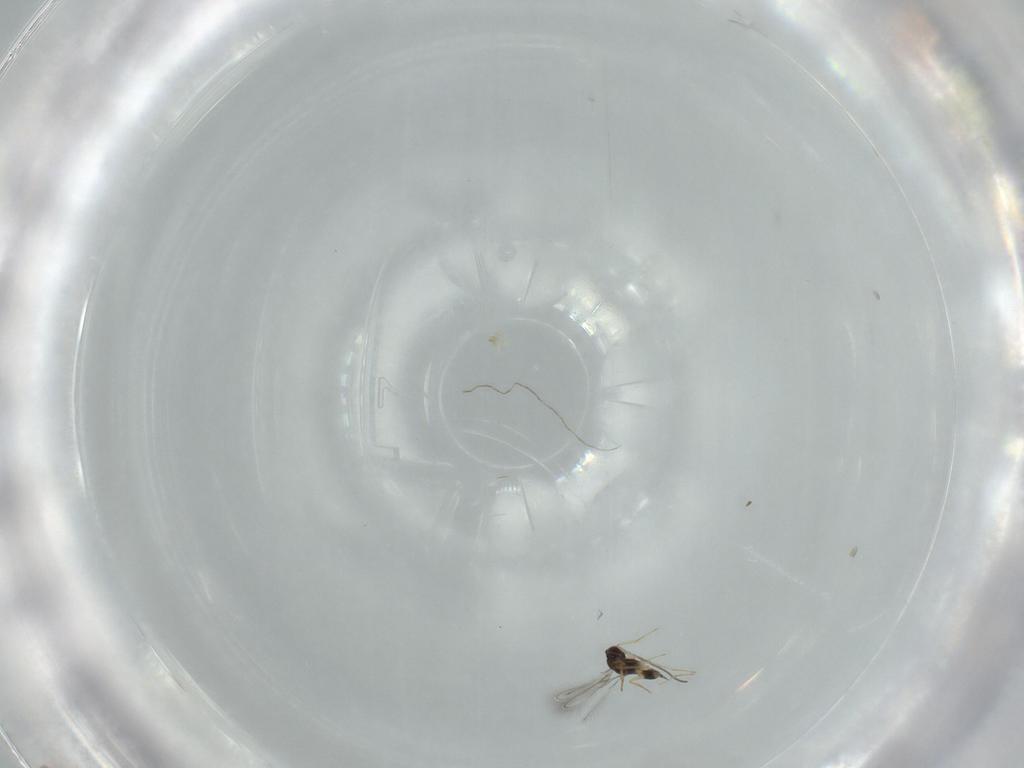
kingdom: Animalia
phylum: Arthropoda
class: Insecta
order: Hymenoptera
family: Mymaridae
